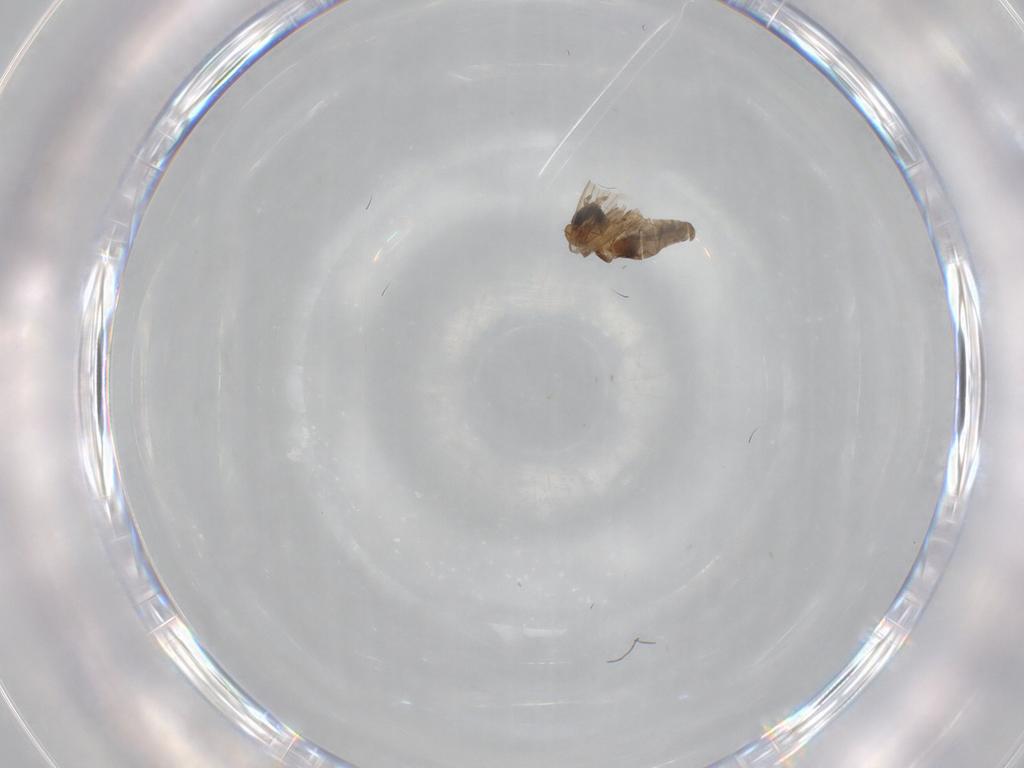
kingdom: Animalia
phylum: Arthropoda
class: Insecta
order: Diptera
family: Psychodidae
